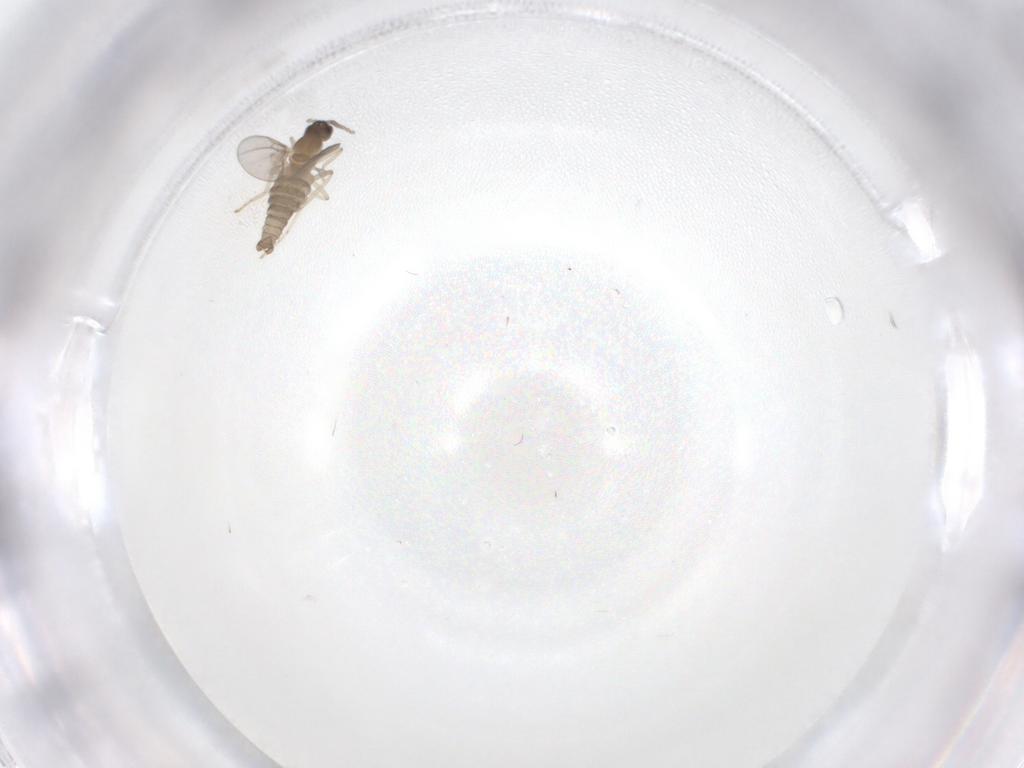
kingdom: Animalia
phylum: Arthropoda
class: Insecta
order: Diptera
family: Cecidomyiidae
